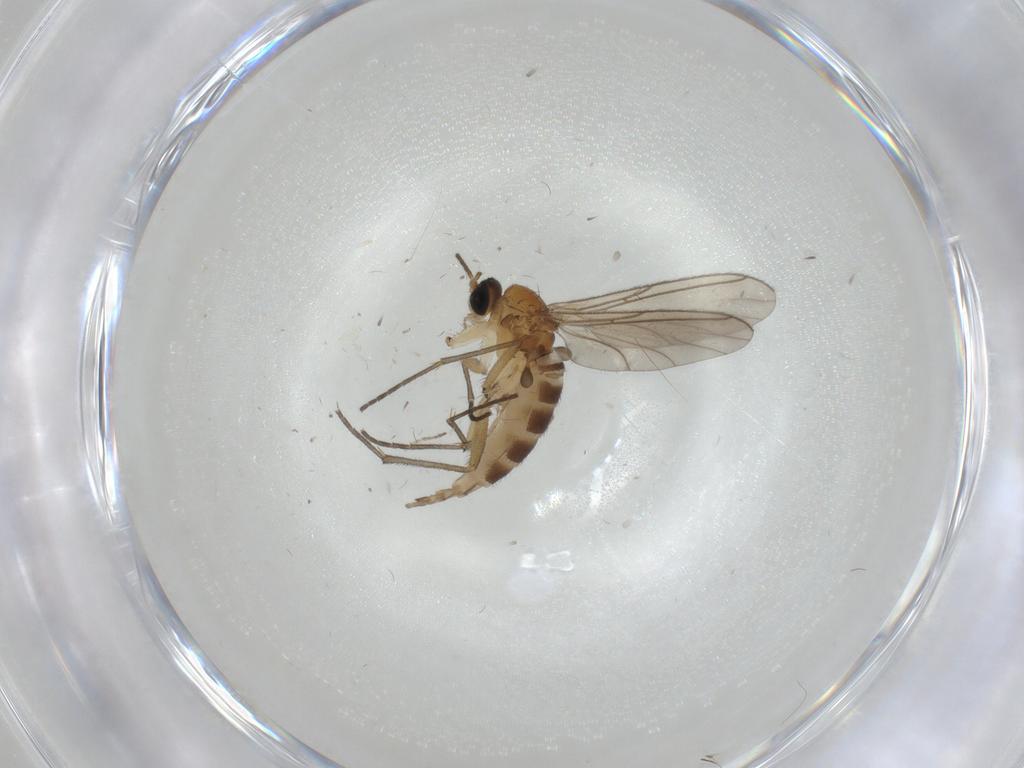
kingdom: Animalia
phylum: Arthropoda
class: Insecta
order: Diptera
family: Sciaridae
